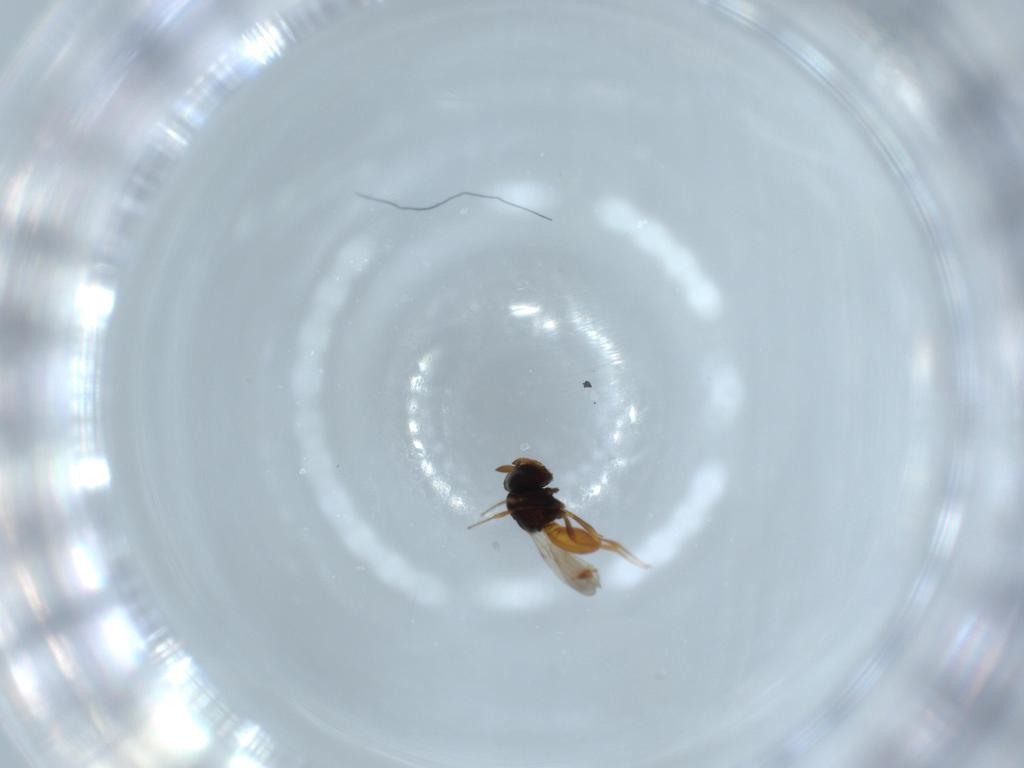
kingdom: Animalia
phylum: Arthropoda
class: Insecta
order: Hymenoptera
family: Scelionidae
